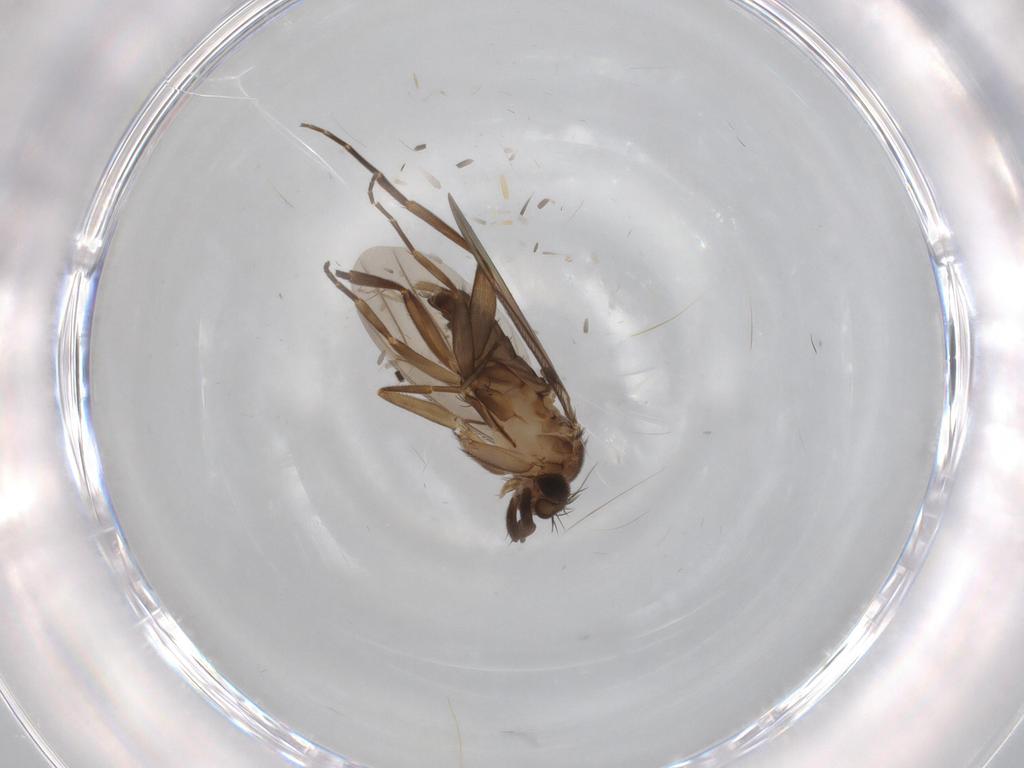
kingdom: Animalia
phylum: Arthropoda
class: Insecta
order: Diptera
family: Phoridae
